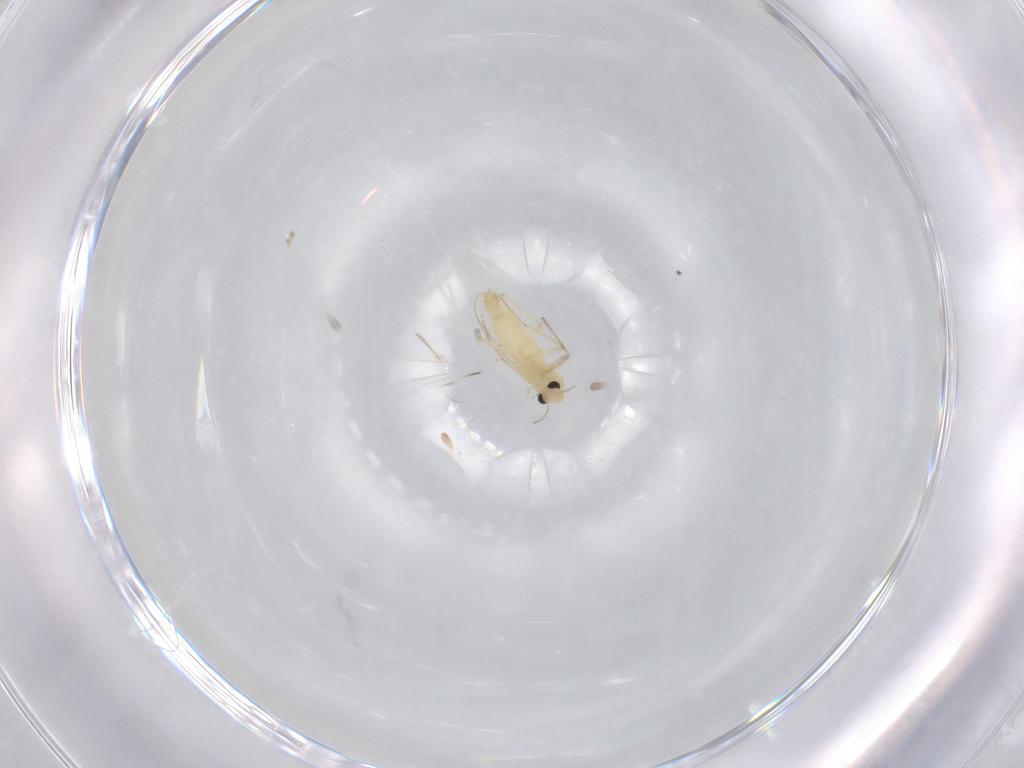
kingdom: Animalia
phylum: Arthropoda
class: Insecta
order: Diptera
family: Chironomidae
